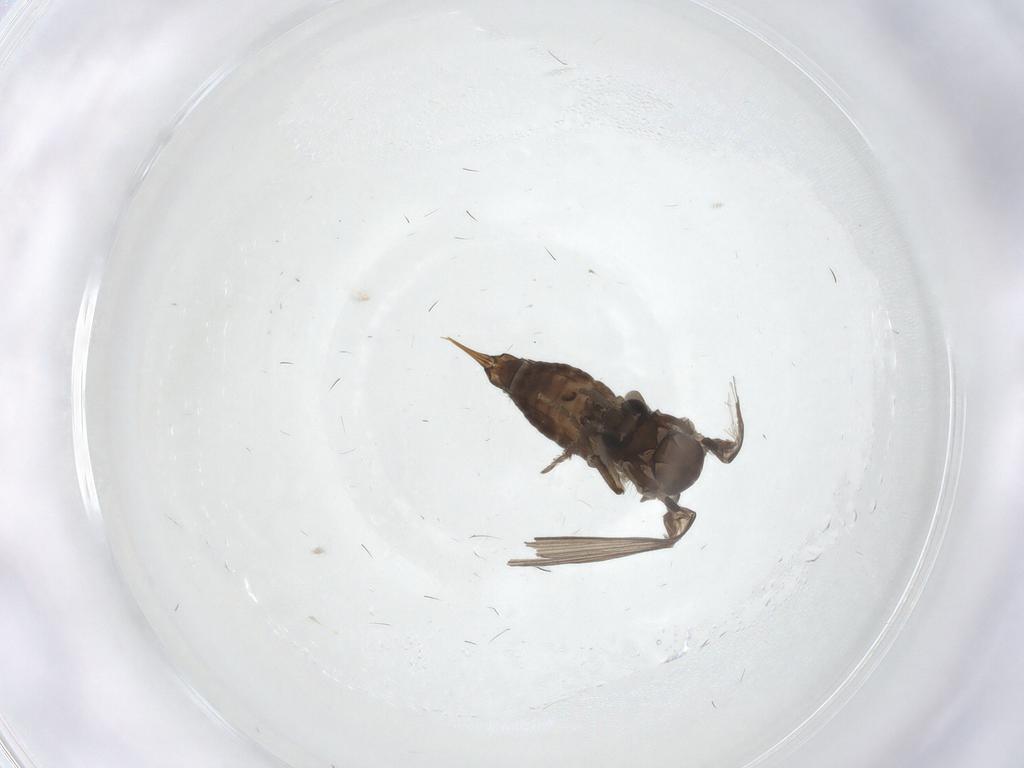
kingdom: Animalia
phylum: Arthropoda
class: Insecta
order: Diptera
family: Psychodidae
